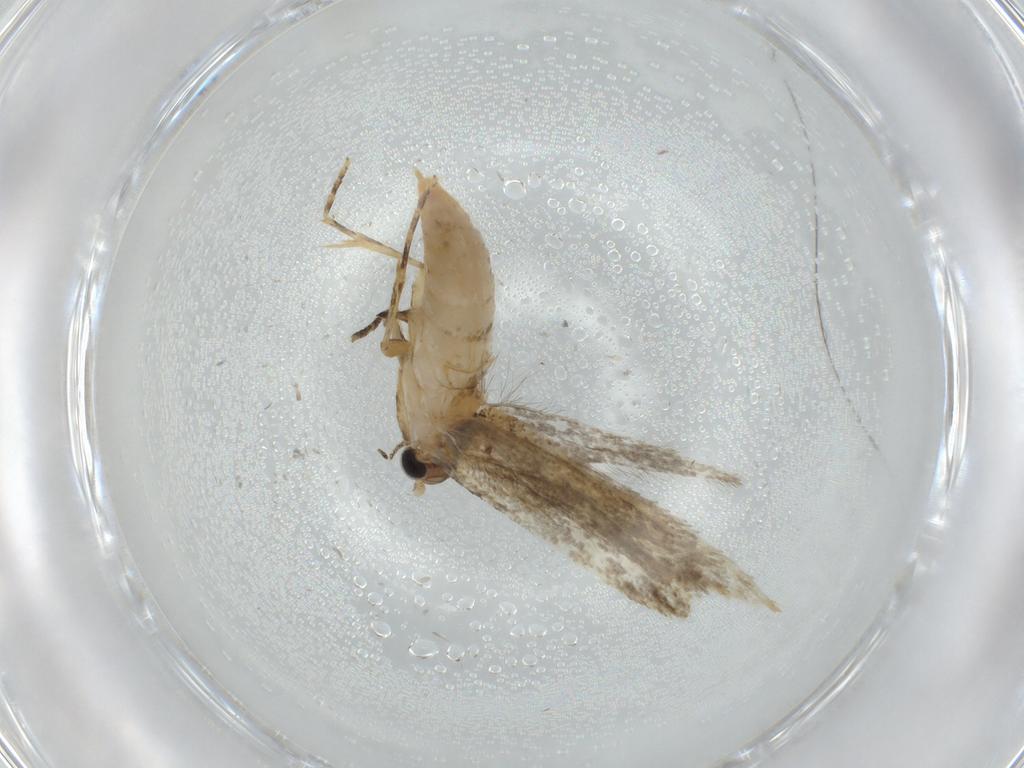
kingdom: Animalia
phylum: Arthropoda
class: Insecta
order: Lepidoptera
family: Tineidae
